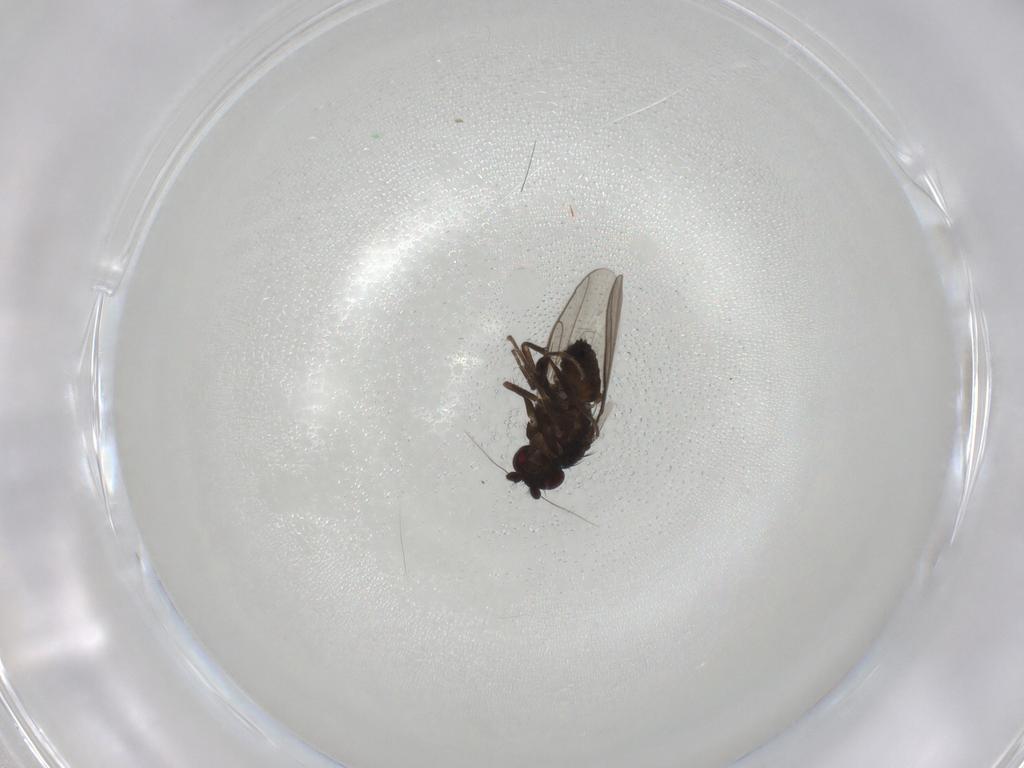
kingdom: Animalia
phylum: Arthropoda
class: Insecta
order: Diptera
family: Sphaeroceridae
